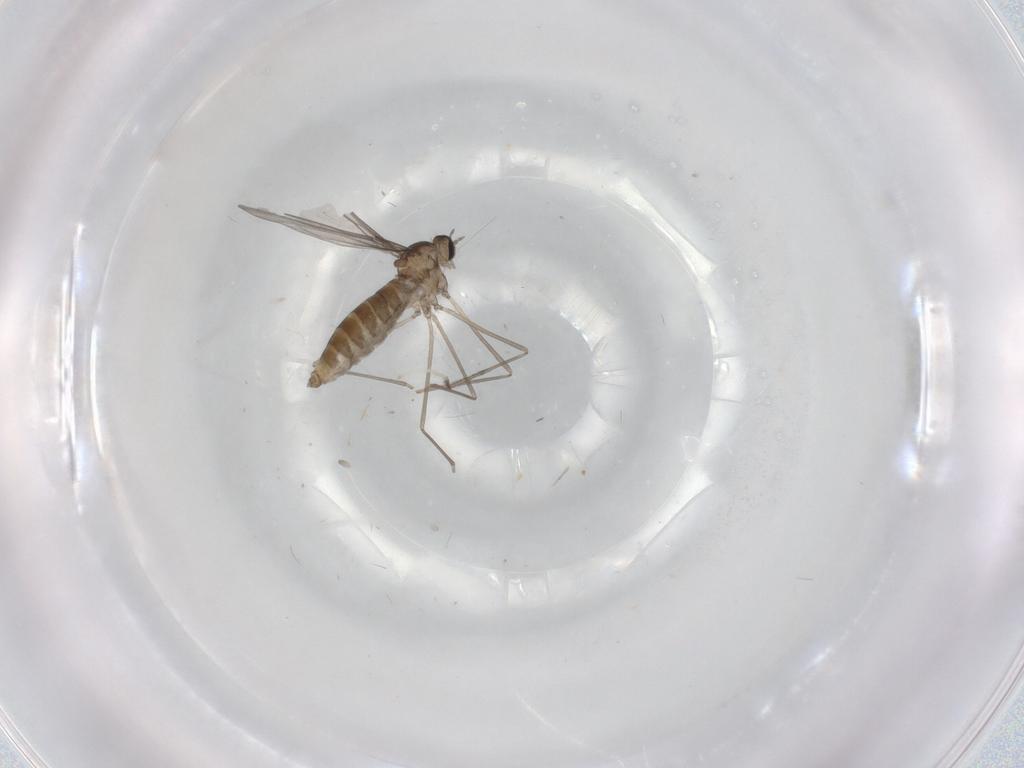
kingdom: Animalia
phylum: Arthropoda
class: Insecta
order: Diptera
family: Cecidomyiidae
